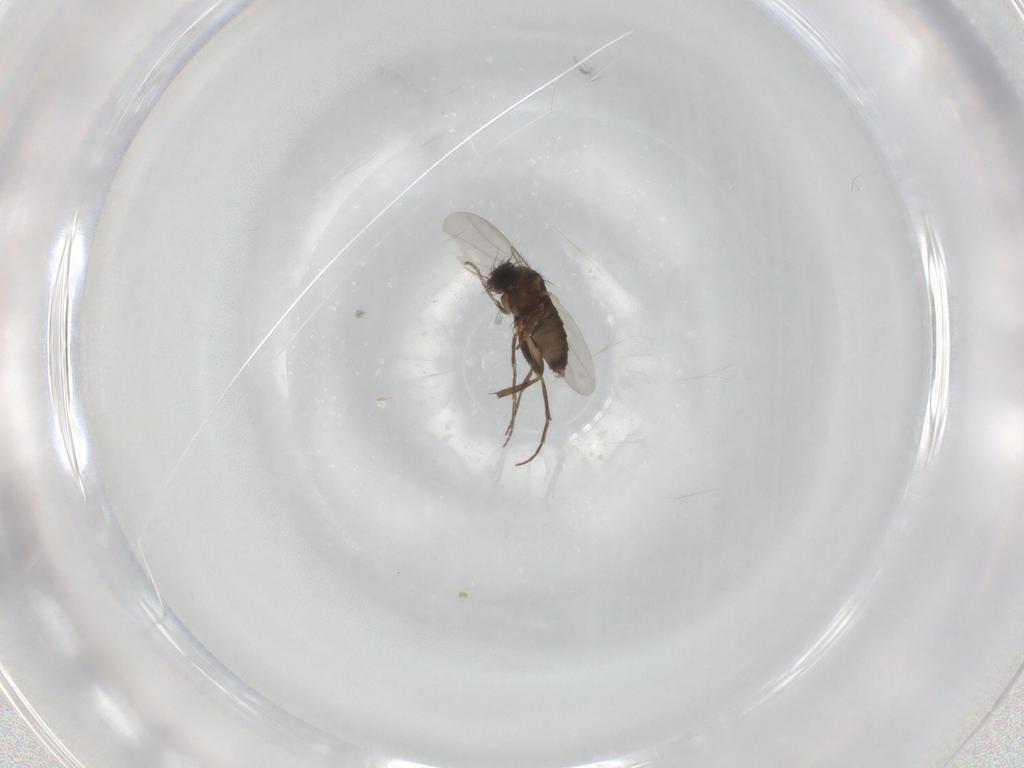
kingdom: Animalia
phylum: Arthropoda
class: Insecta
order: Diptera
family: Phoridae
